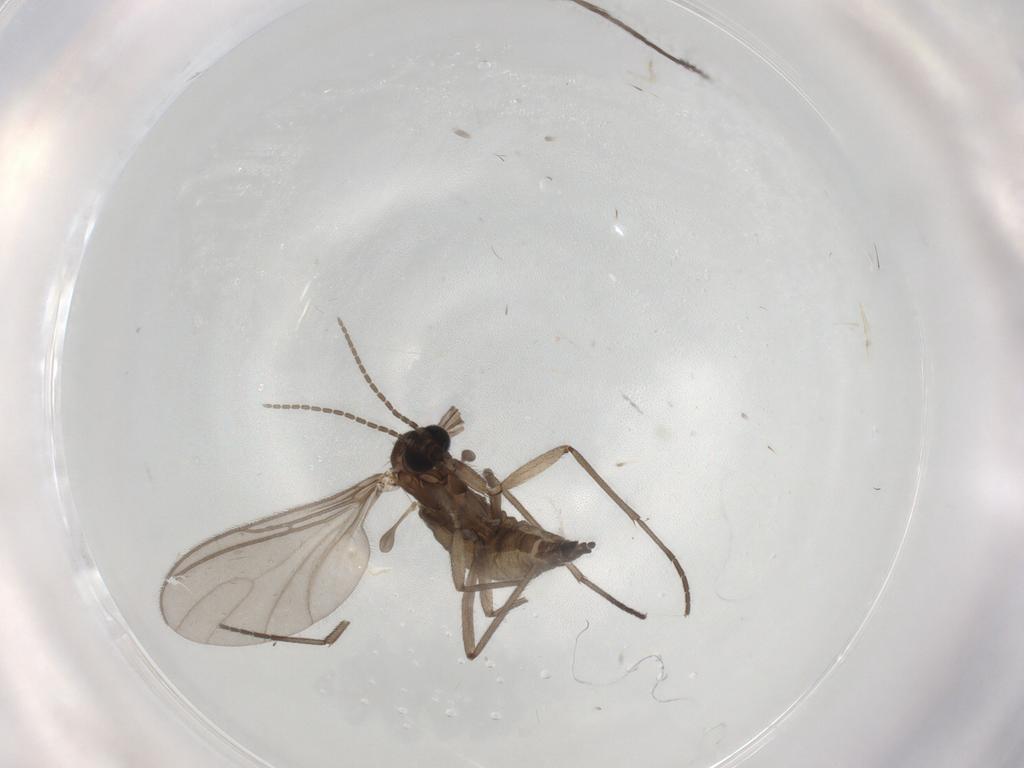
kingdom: Animalia
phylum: Arthropoda
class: Insecta
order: Diptera
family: Sciaridae
